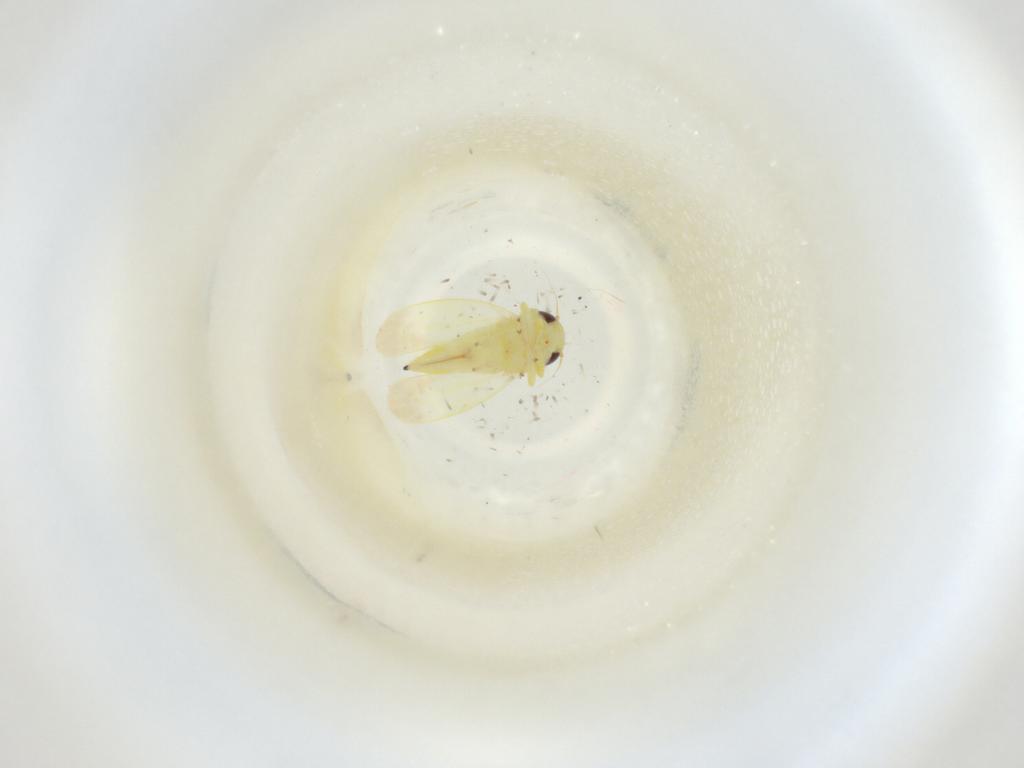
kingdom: Animalia
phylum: Arthropoda
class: Insecta
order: Hemiptera
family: Cicadellidae
